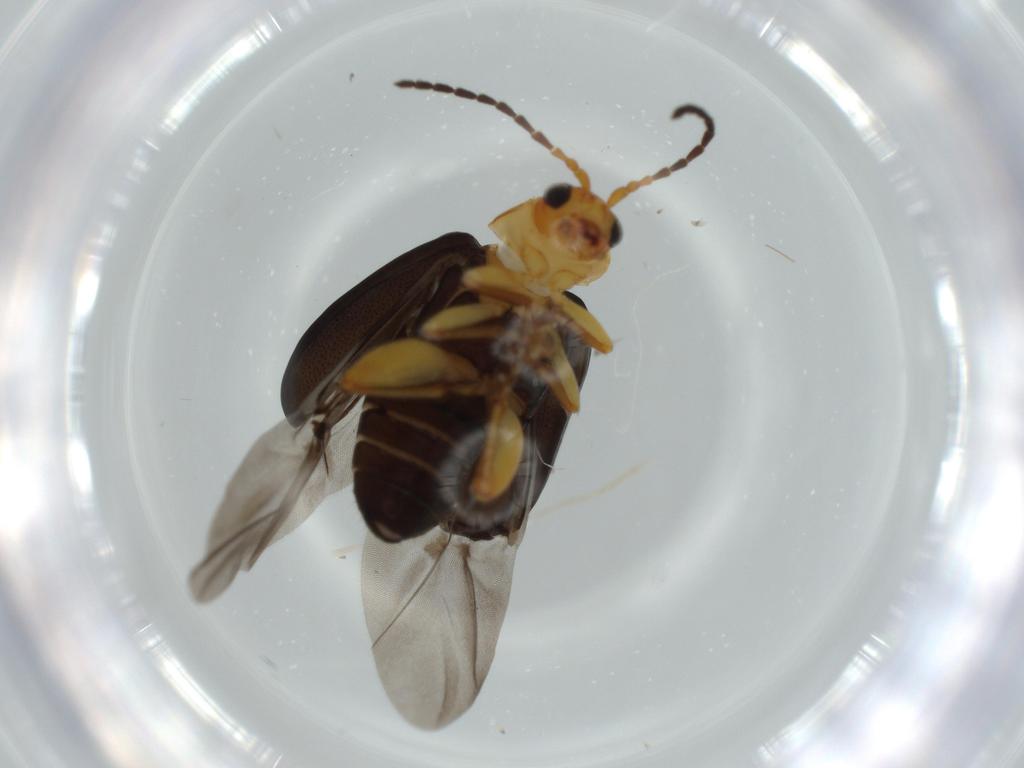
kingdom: Animalia
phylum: Arthropoda
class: Insecta
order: Coleoptera
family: Chrysomelidae
